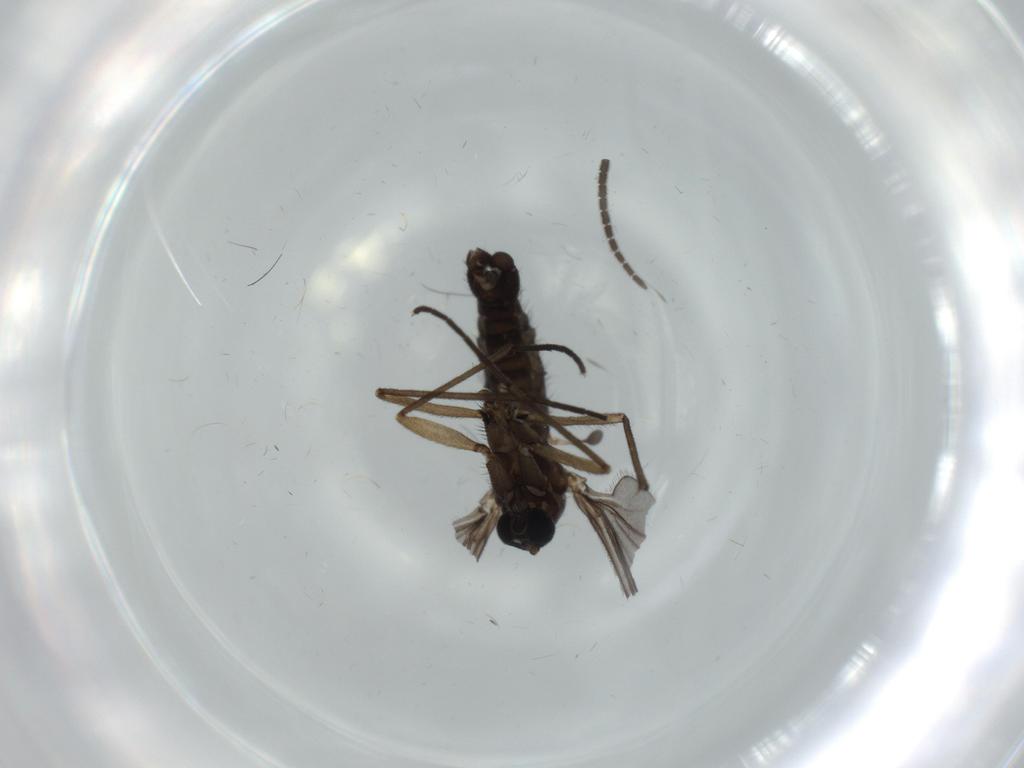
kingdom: Animalia
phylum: Arthropoda
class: Insecta
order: Diptera
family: Sciaridae
